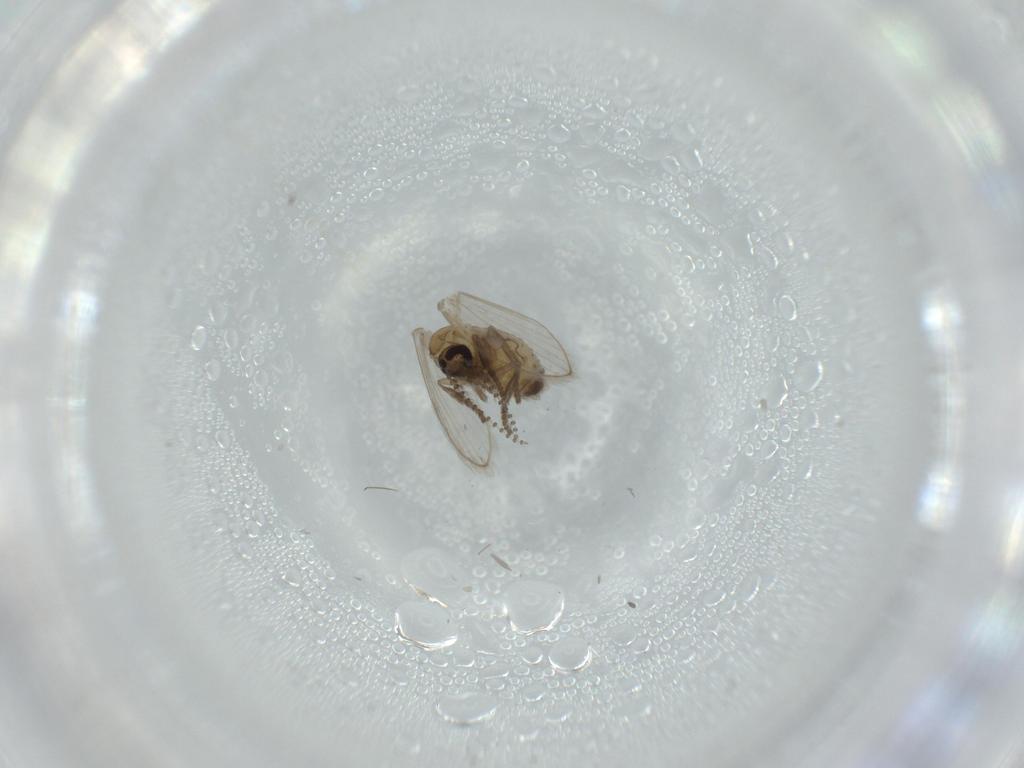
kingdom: Animalia
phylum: Arthropoda
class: Insecta
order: Diptera
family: Psychodidae
